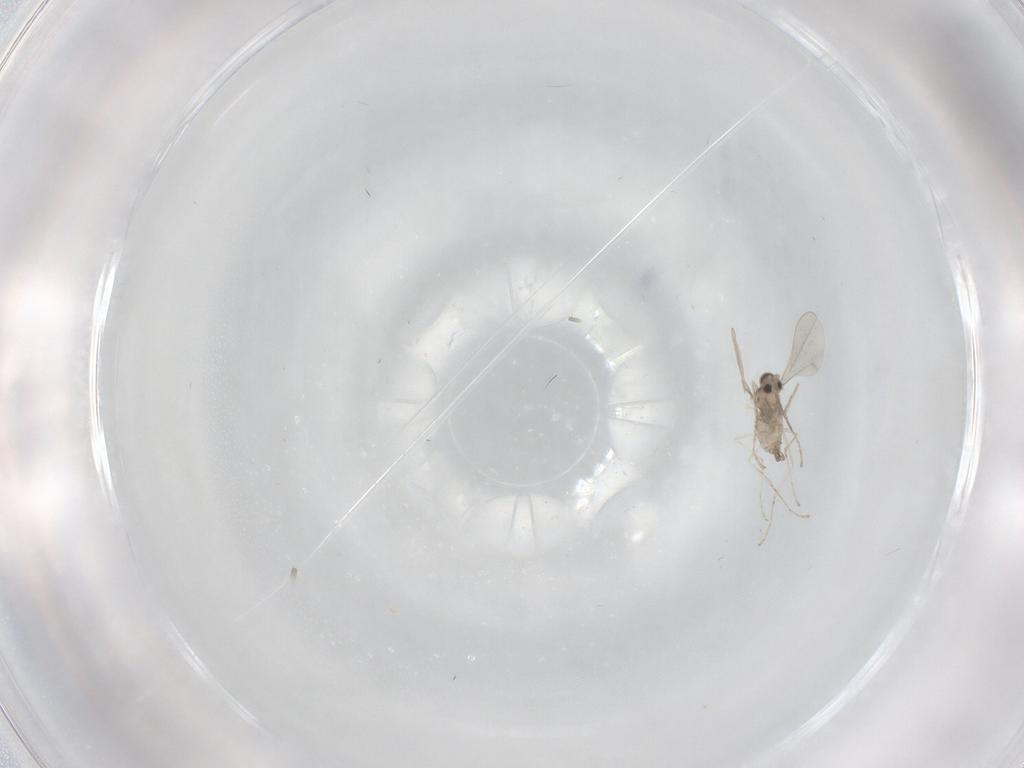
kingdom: Animalia
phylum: Arthropoda
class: Insecta
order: Diptera
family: Cecidomyiidae
